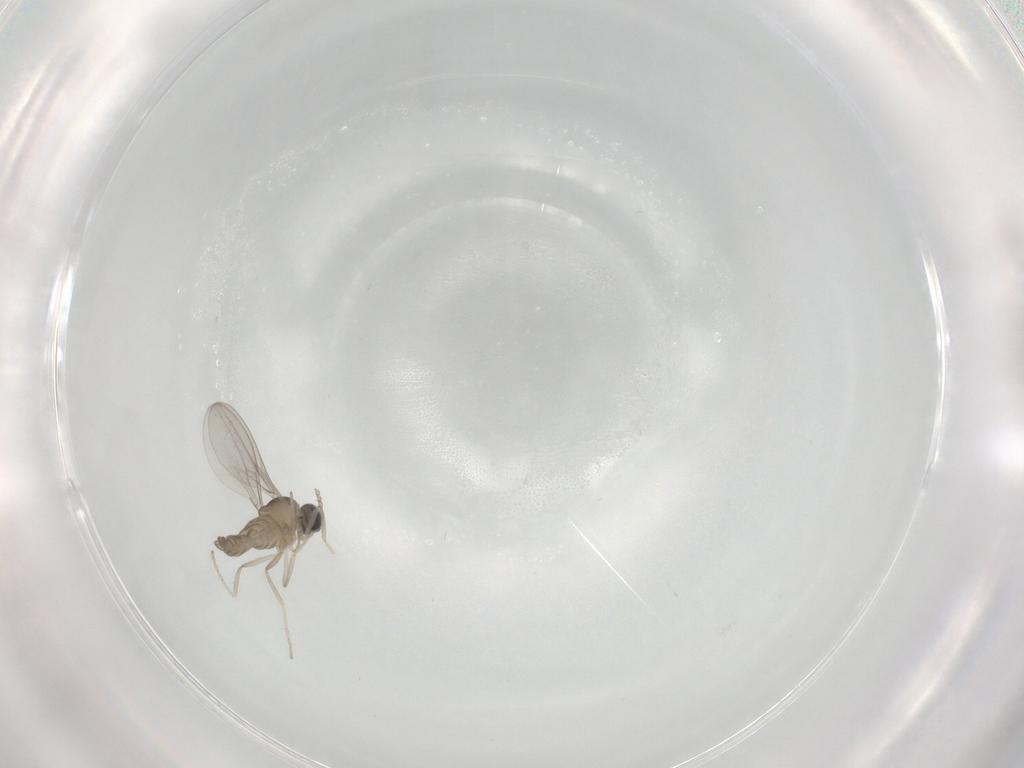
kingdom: Animalia
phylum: Arthropoda
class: Insecta
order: Diptera
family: Cecidomyiidae
